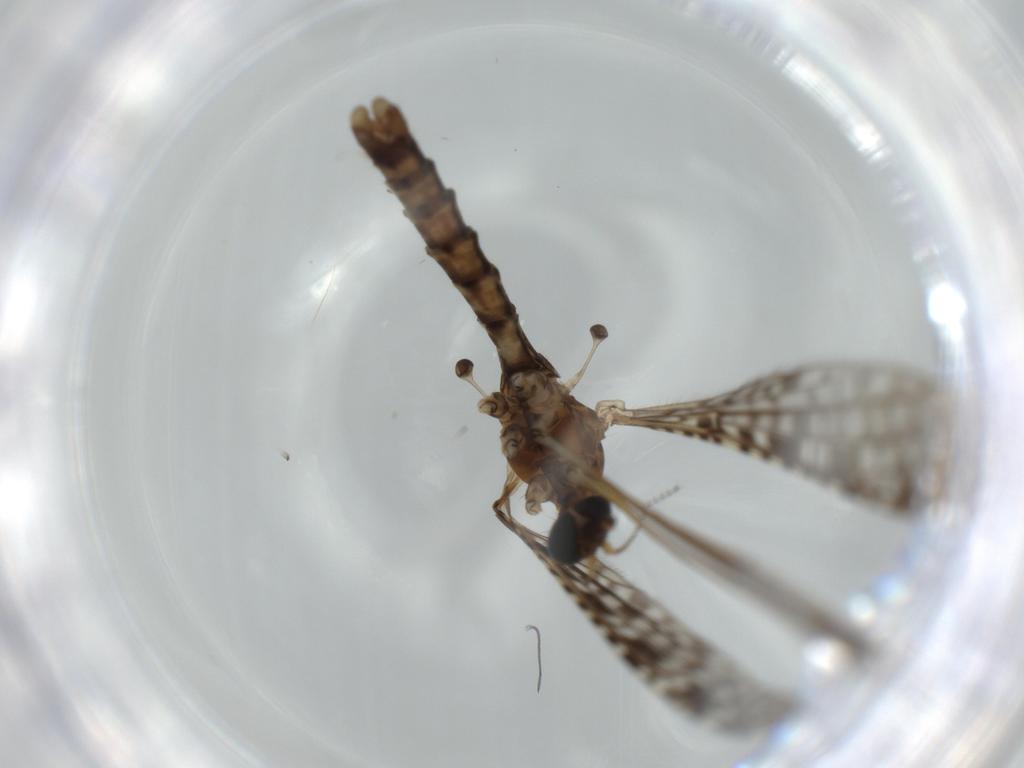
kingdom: Animalia
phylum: Arthropoda
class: Insecta
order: Diptera
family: Limoniidae
